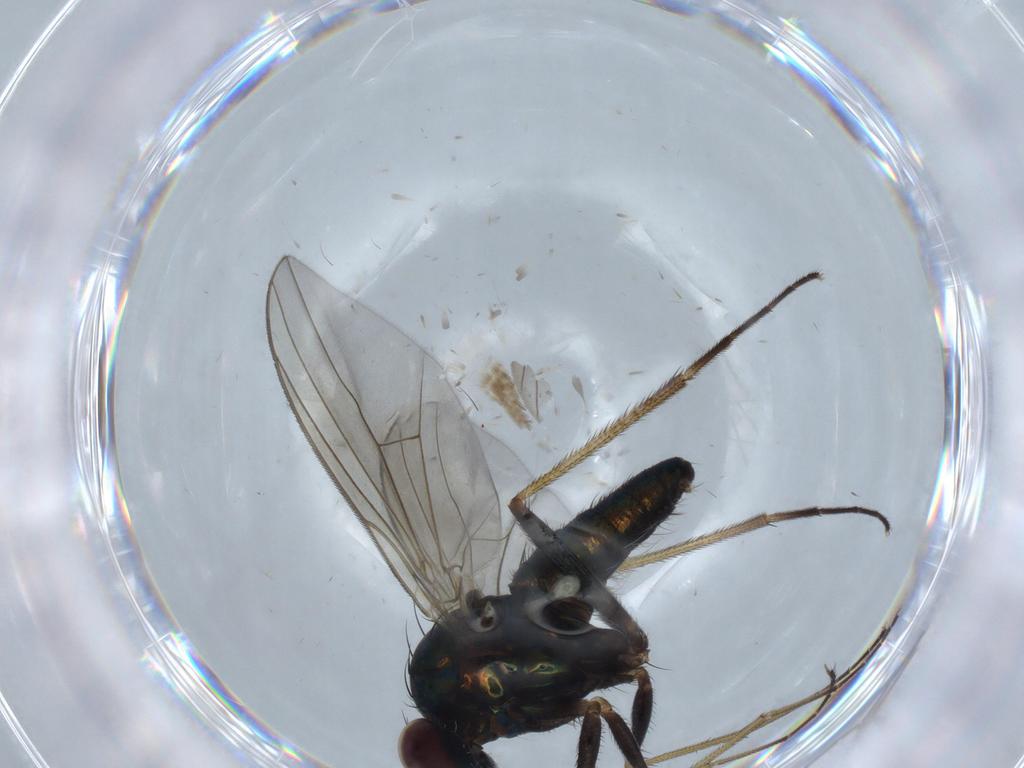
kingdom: Animalia
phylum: Arthropoda
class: Insecta
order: Diptera
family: Dolichopodidae
